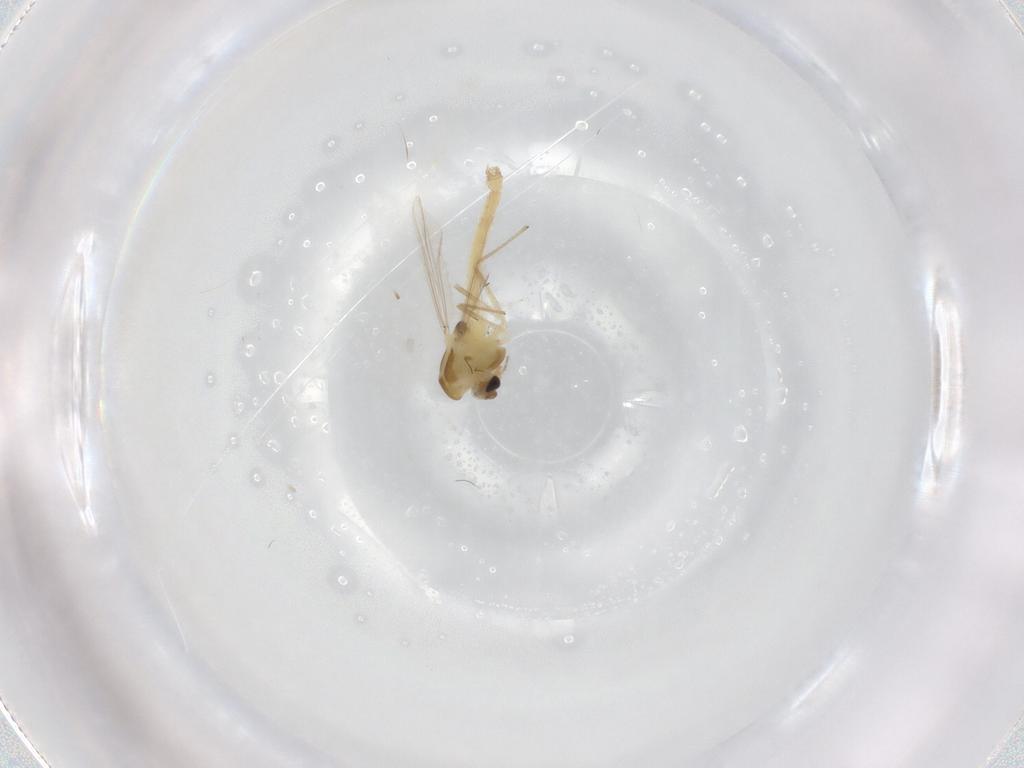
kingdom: Animalia
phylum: Arthropoda
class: Insecta
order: Diptera
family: Chironomidae
